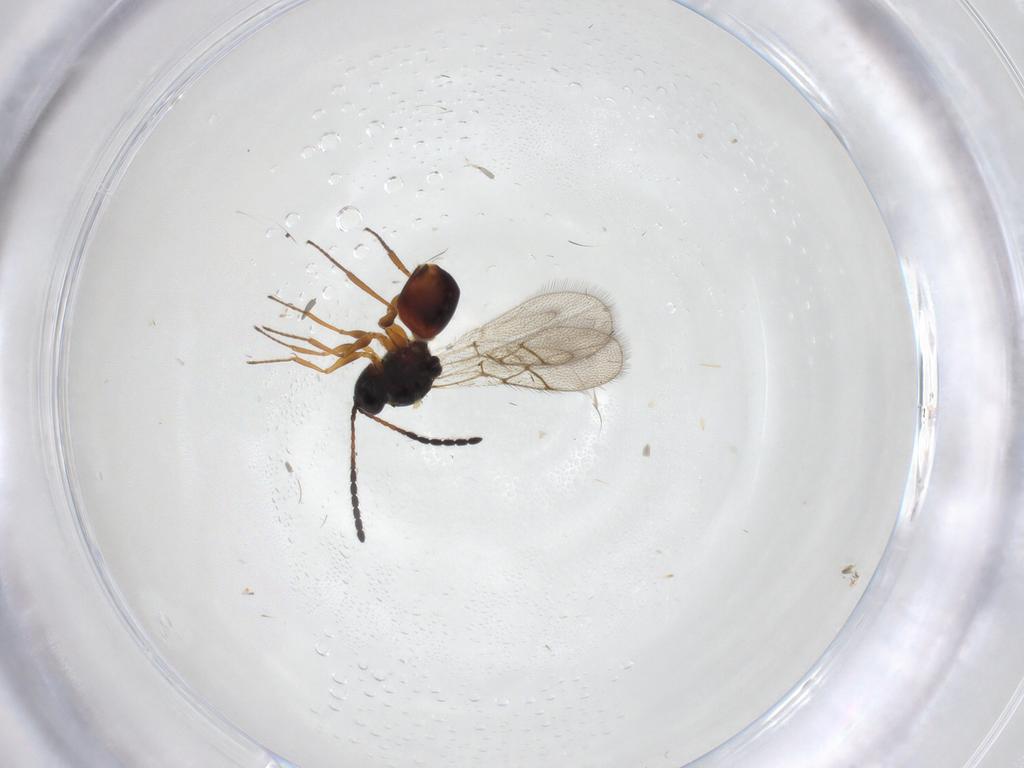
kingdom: Animalia
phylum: Arthropoda
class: Insecta
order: Hymenoptera
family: Figitidae
